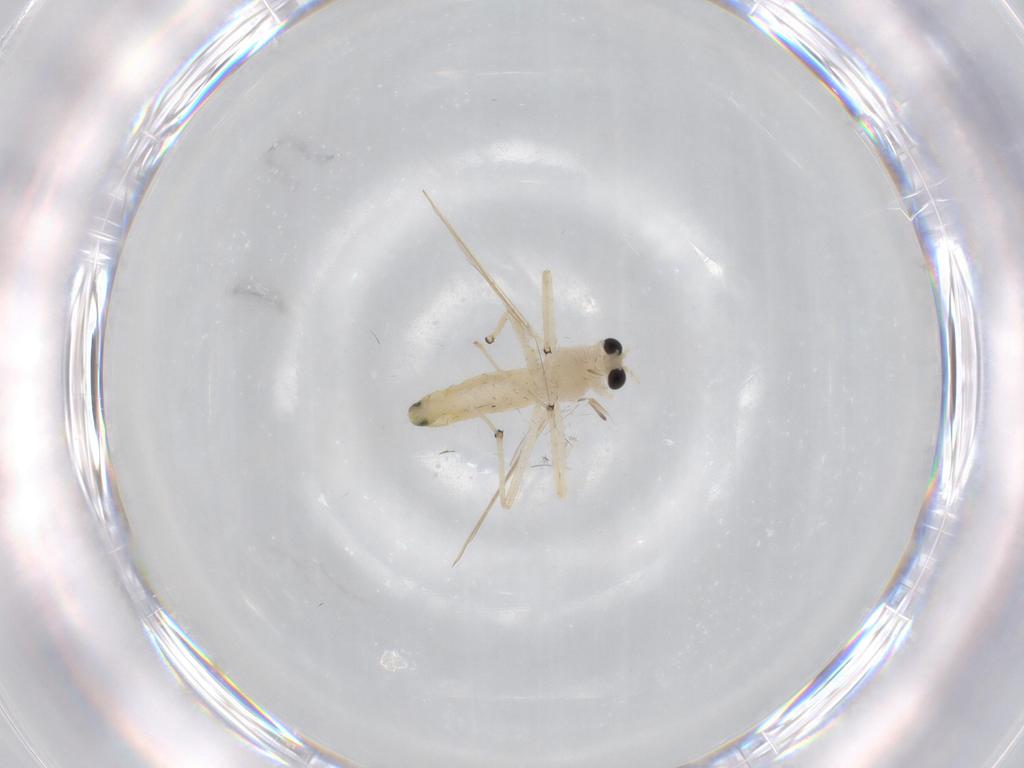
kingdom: Animalia
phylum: Arthropoda
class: Insecta
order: Diptera
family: Chironomidae
